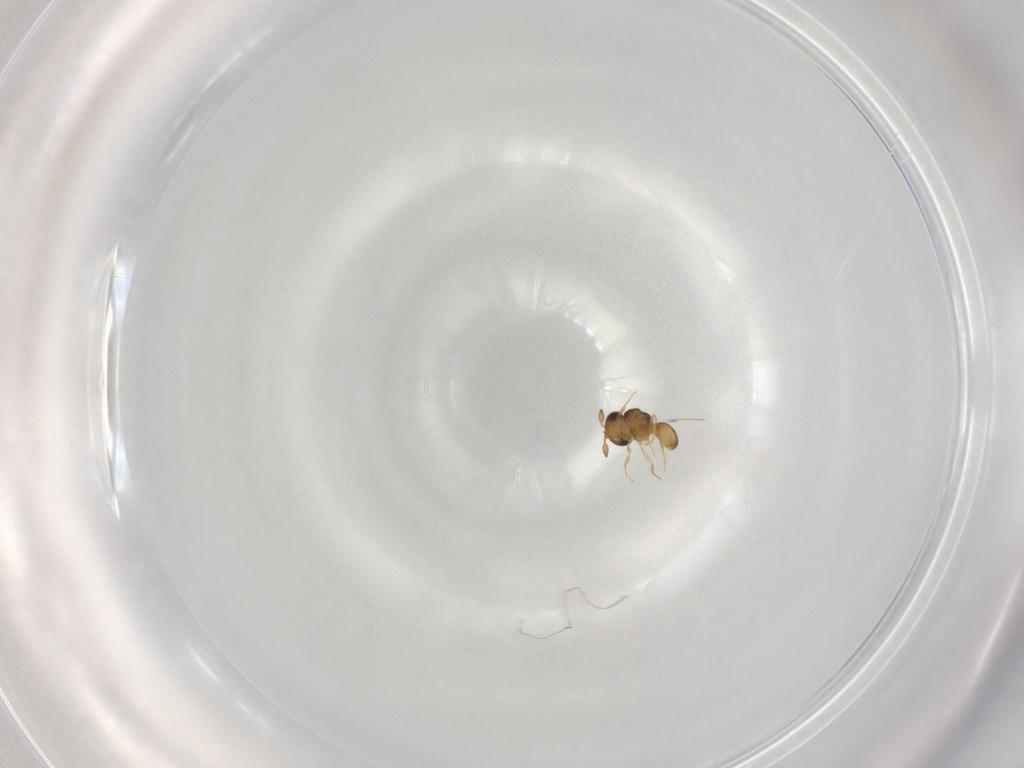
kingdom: Animalia
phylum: Arthropoda
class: Insecta
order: Hymenoptera
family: Scelionidae
